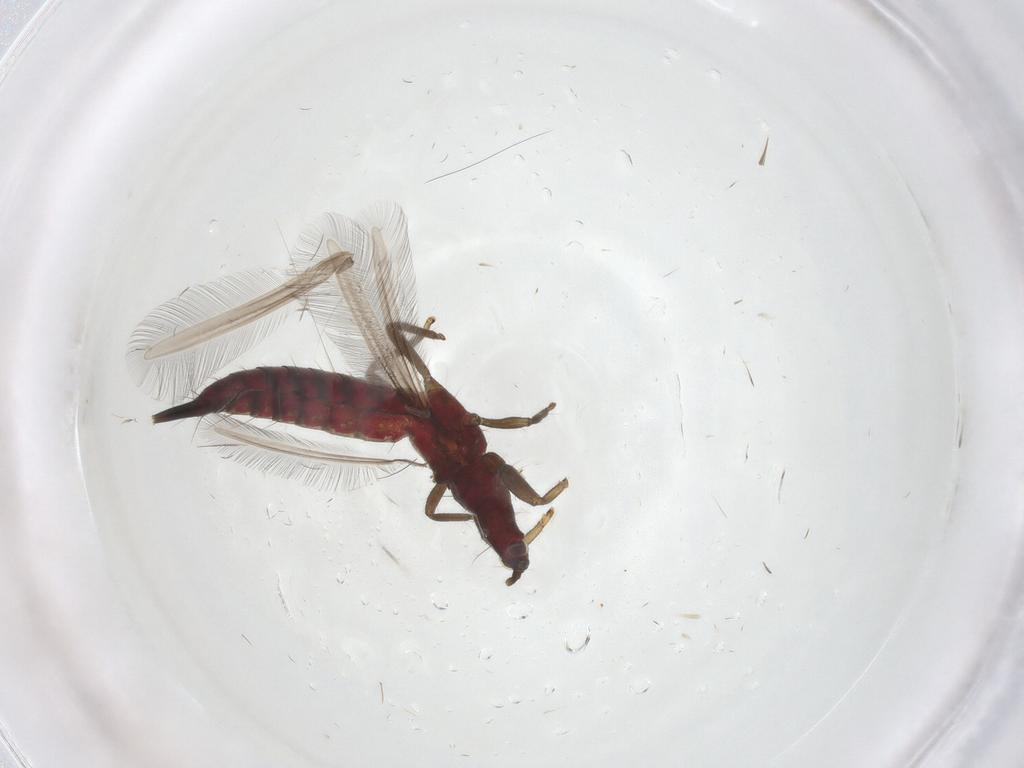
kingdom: Animalia
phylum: Arthropoda
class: Insecta
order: Thysanoptera
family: Phlaeothripidae
